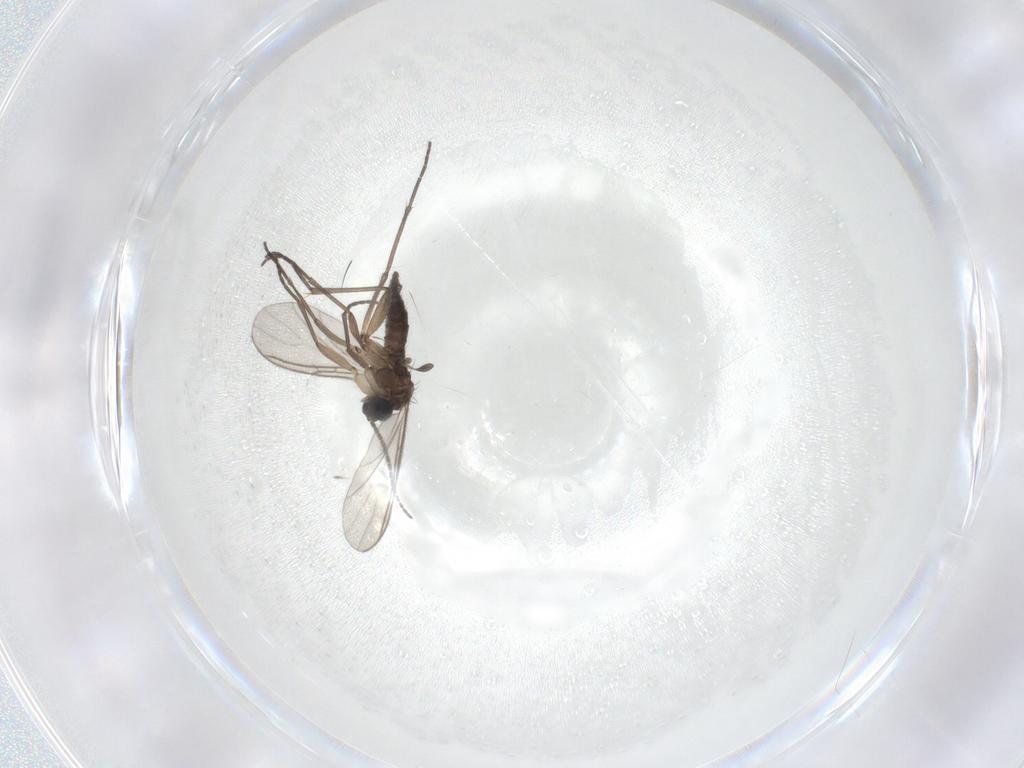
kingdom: Animalia
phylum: Arthropoda
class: Insecta
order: Diptera
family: Sciaridae
